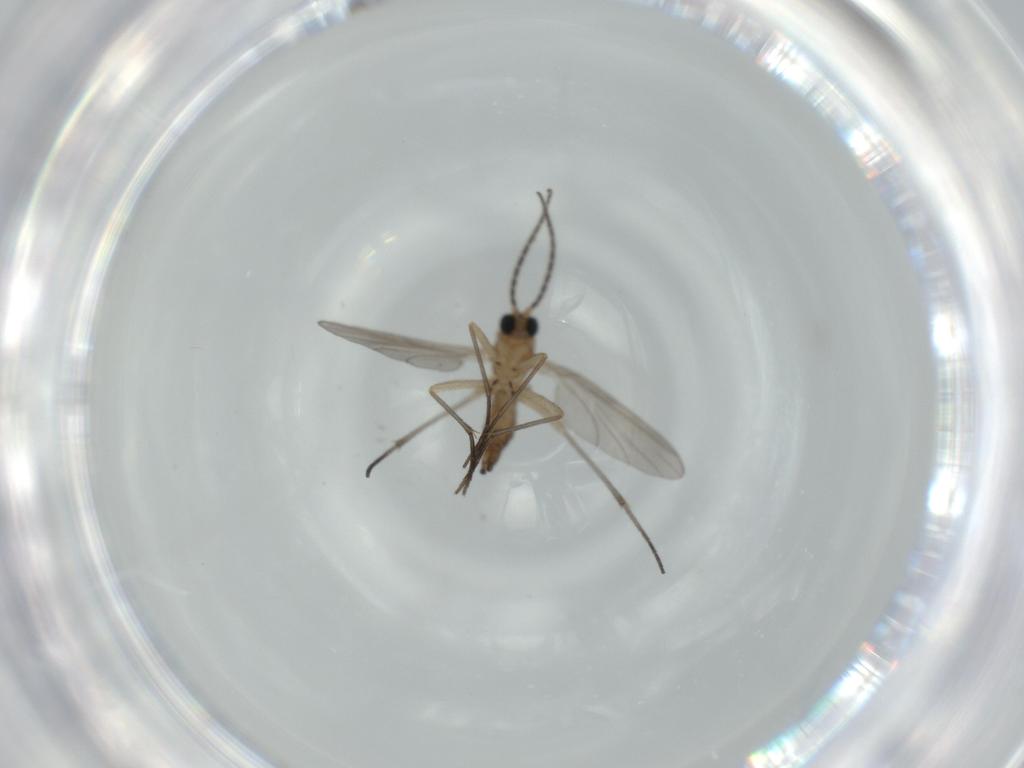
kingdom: Animalia
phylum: Arthropoda
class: Insecta
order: Diptera
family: Sciaridae
